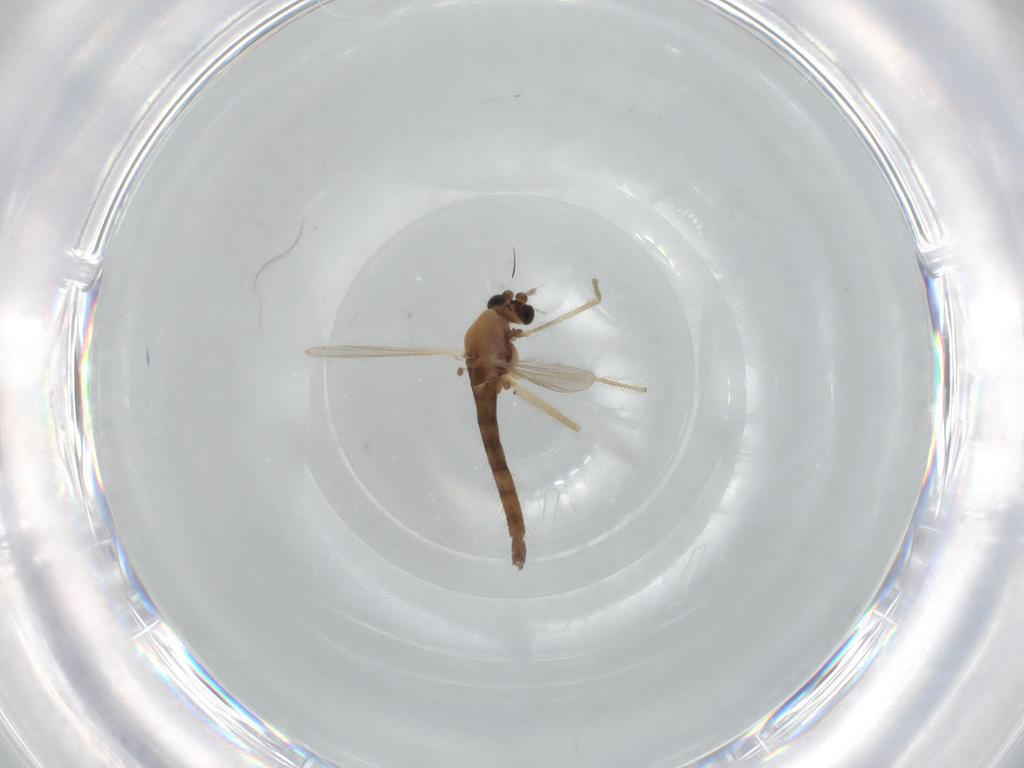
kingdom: Animalia
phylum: Arthropoda
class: Insecta
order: Diptera
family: Chironomidae
